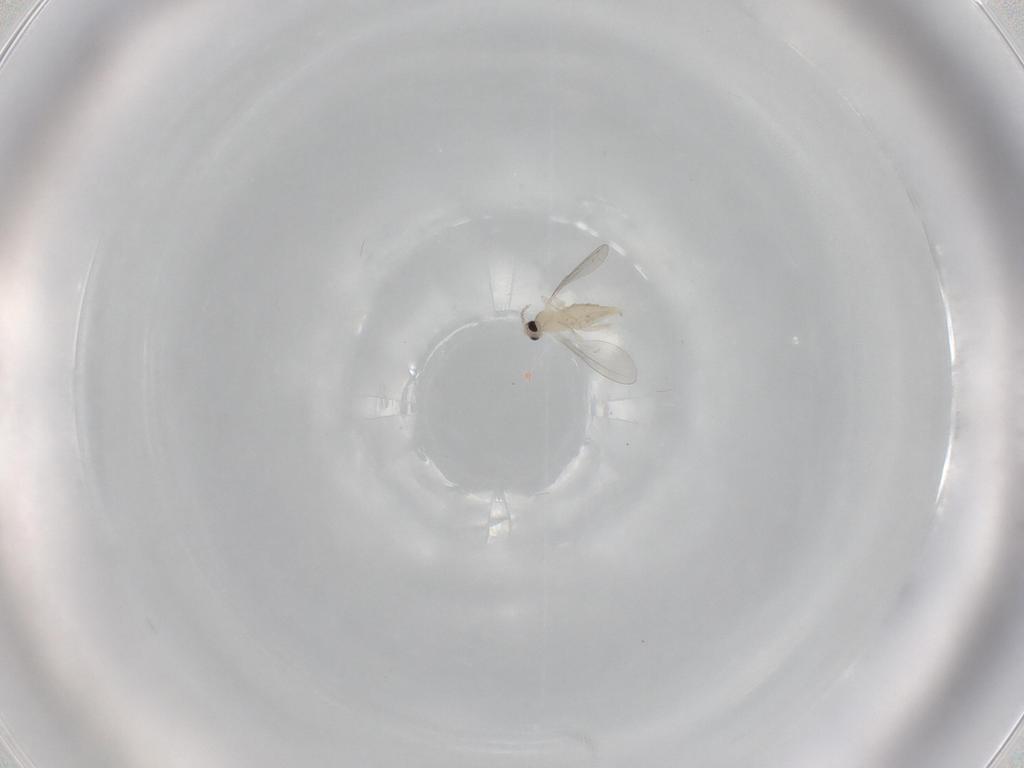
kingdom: Animalia
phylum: Arthropoda
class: Insecta
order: Diptera
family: Cecidomyiidae
